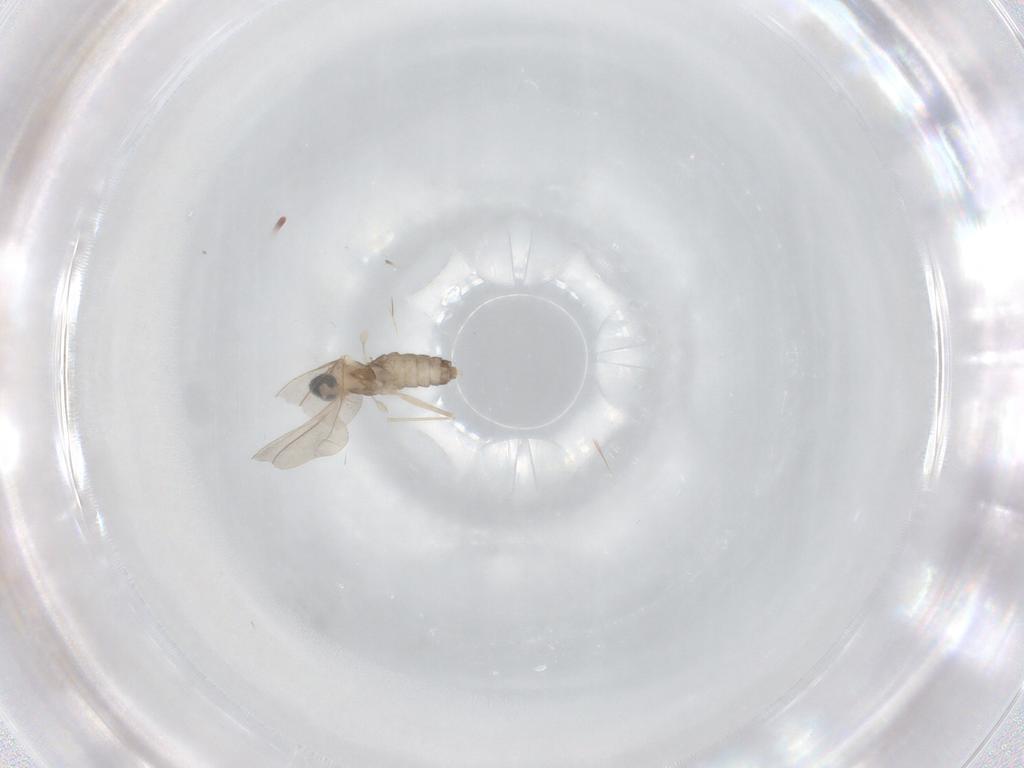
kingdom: Animalia
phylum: Arthropoda
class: Insecta
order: Diptera
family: Cecidomyiidae
